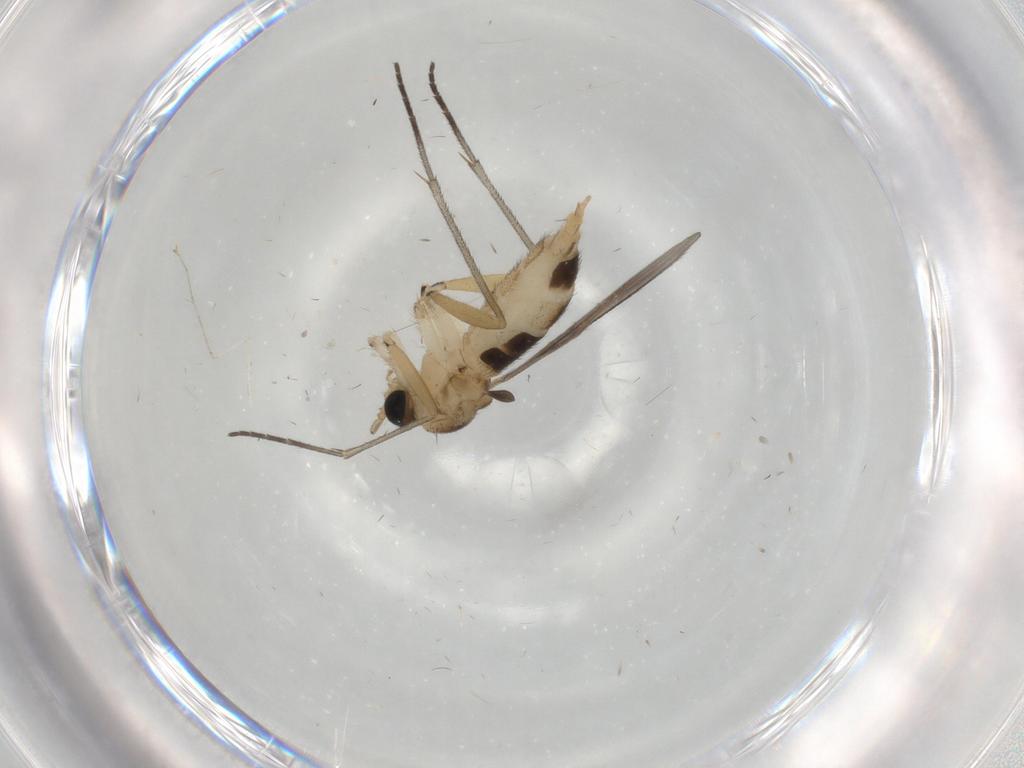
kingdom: Animalia
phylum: Arthropoda
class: Insecta
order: Diptera
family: Sciaridae
